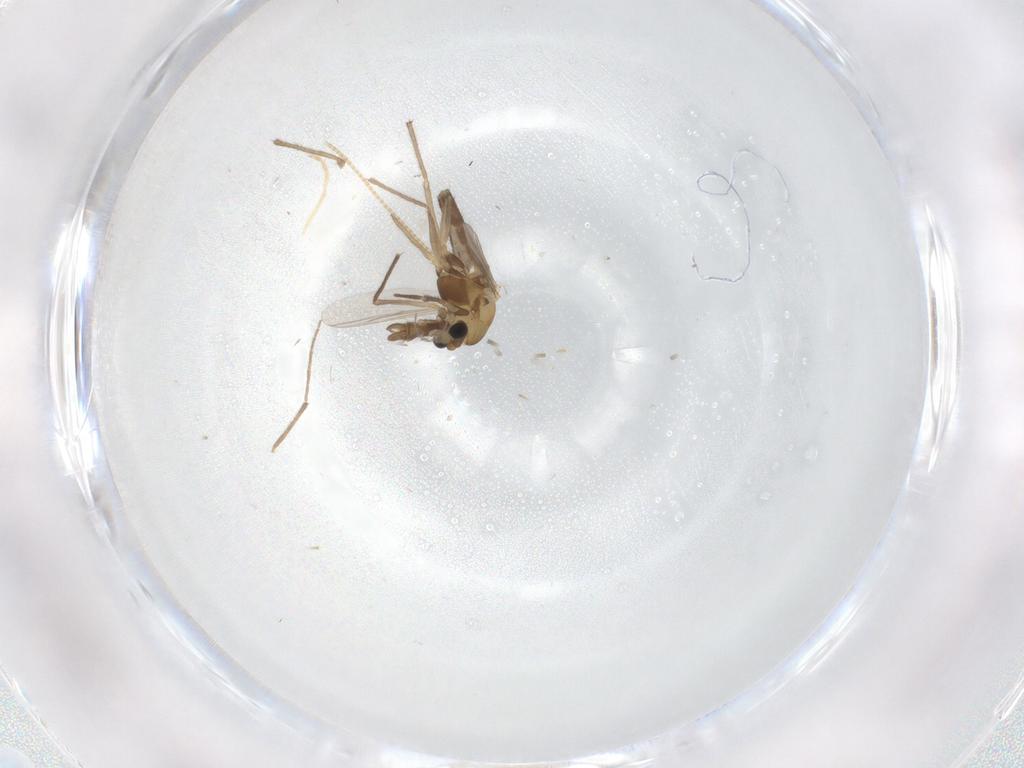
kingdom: Animalia
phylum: Arthropoda
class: Insecta
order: Diptera
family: Chironomidae
